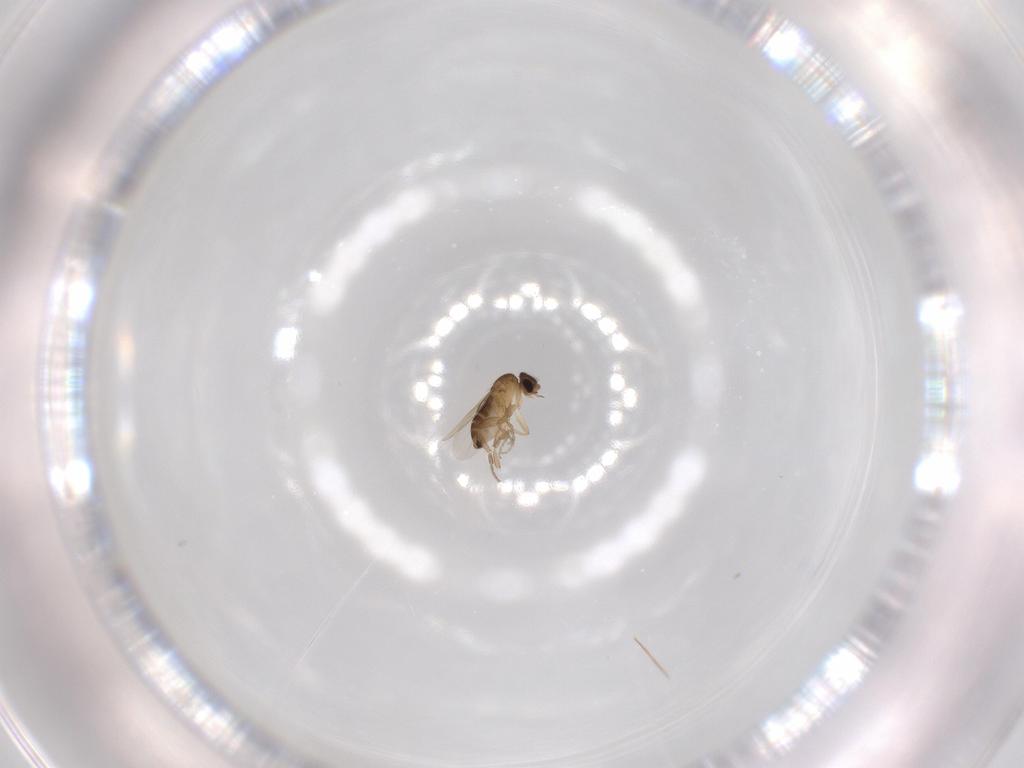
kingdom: Animalia
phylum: Arthropoda
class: Insecta
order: Diptera
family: Phoridae
